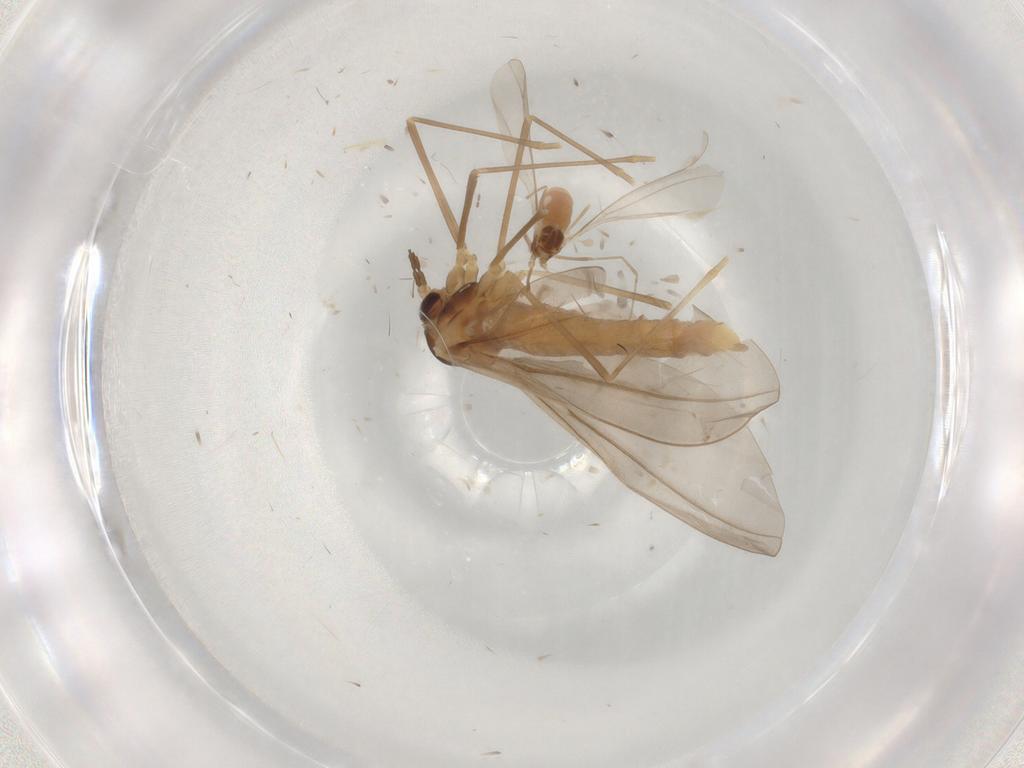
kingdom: Animalia
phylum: Arthropoda
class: Insecta
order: Diptera
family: Cecidomyiidae
